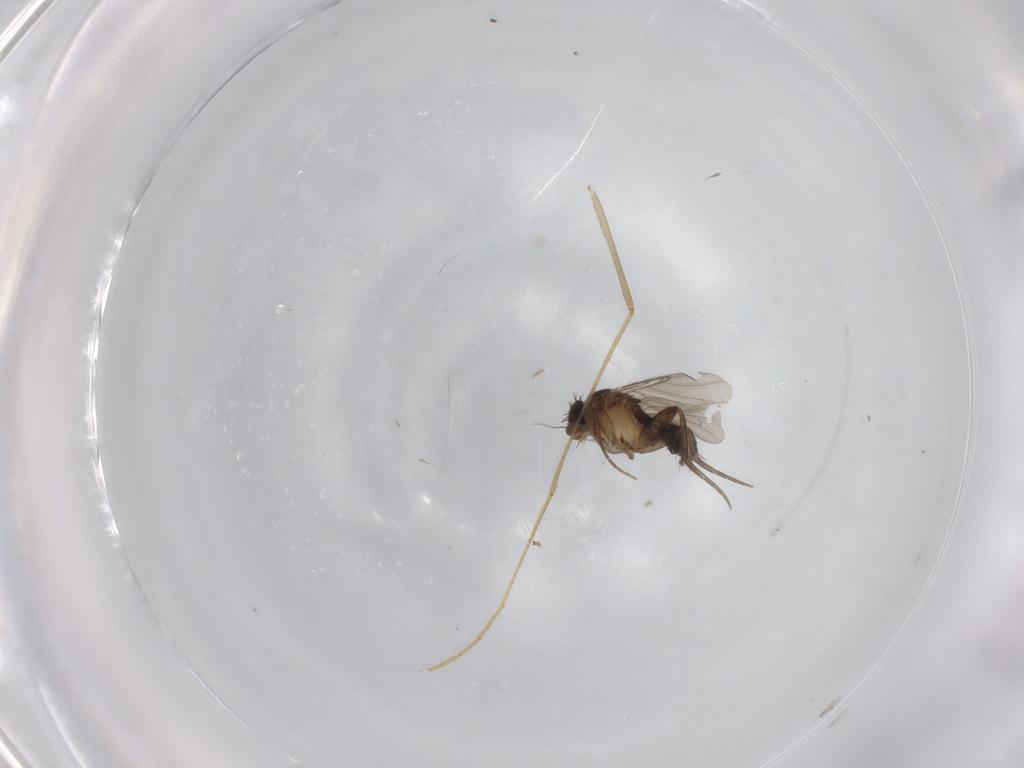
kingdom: Animalia
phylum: Arthropoda
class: Insecta
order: Diptera
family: Phoridae
